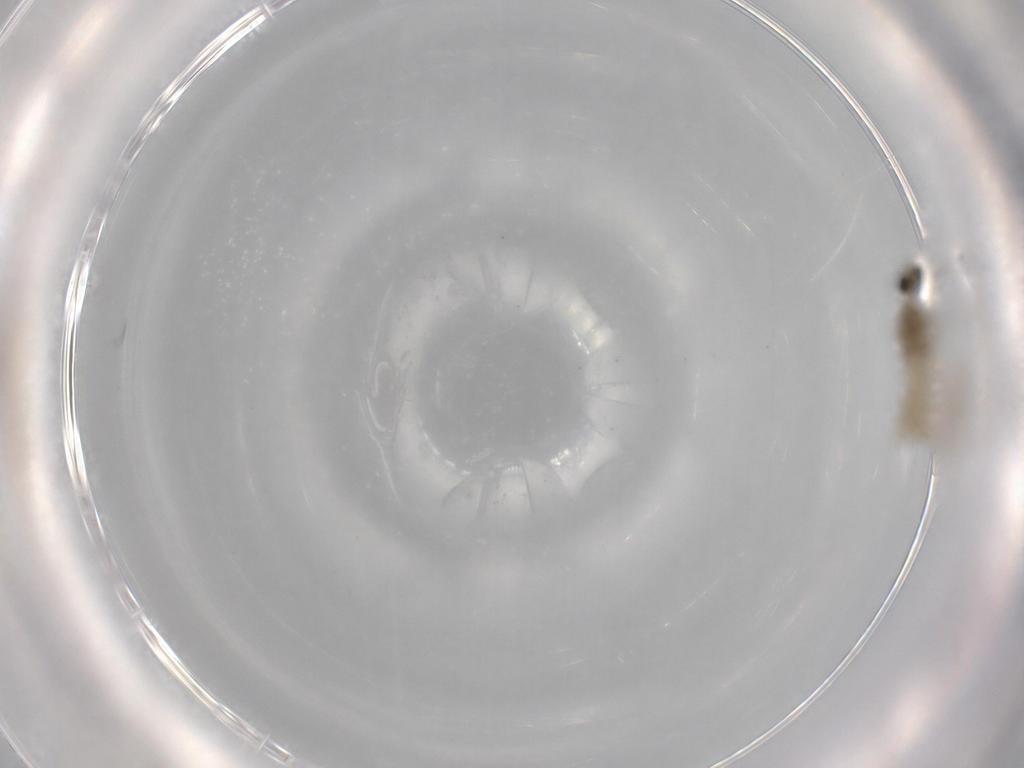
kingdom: Animalia
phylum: Arthropoda
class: Insecta
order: Diptera
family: Cecidomyiidae
